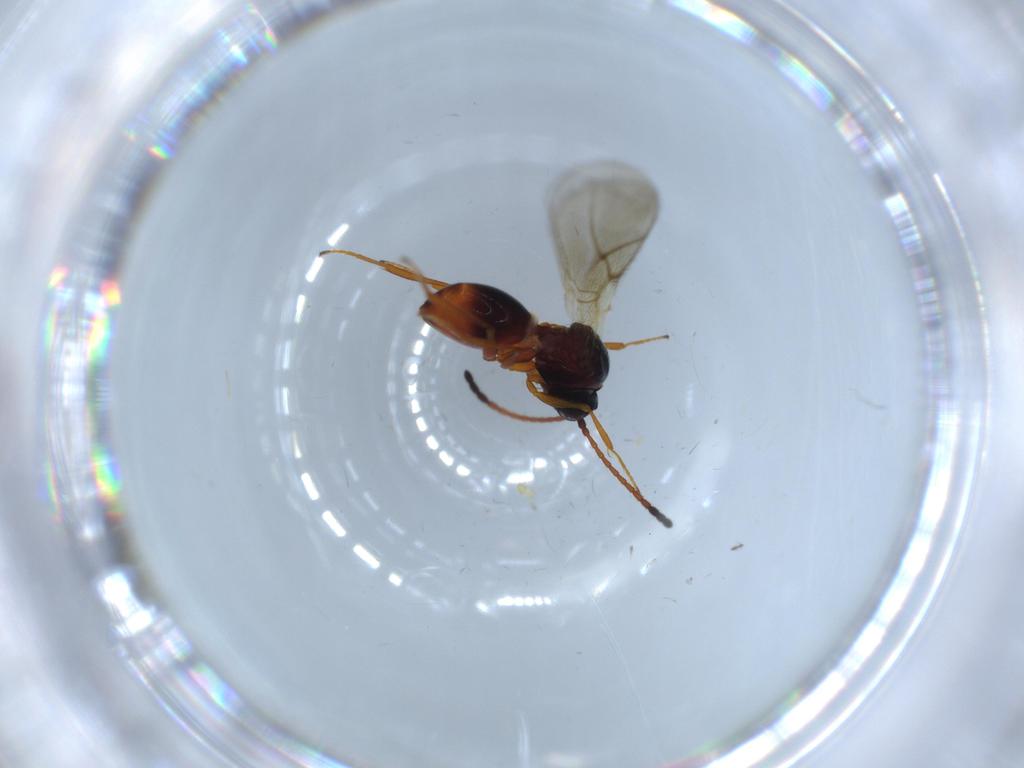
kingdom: Animalia
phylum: Arthropoda
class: Insecta
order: Hymenoptera
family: Figitidae
